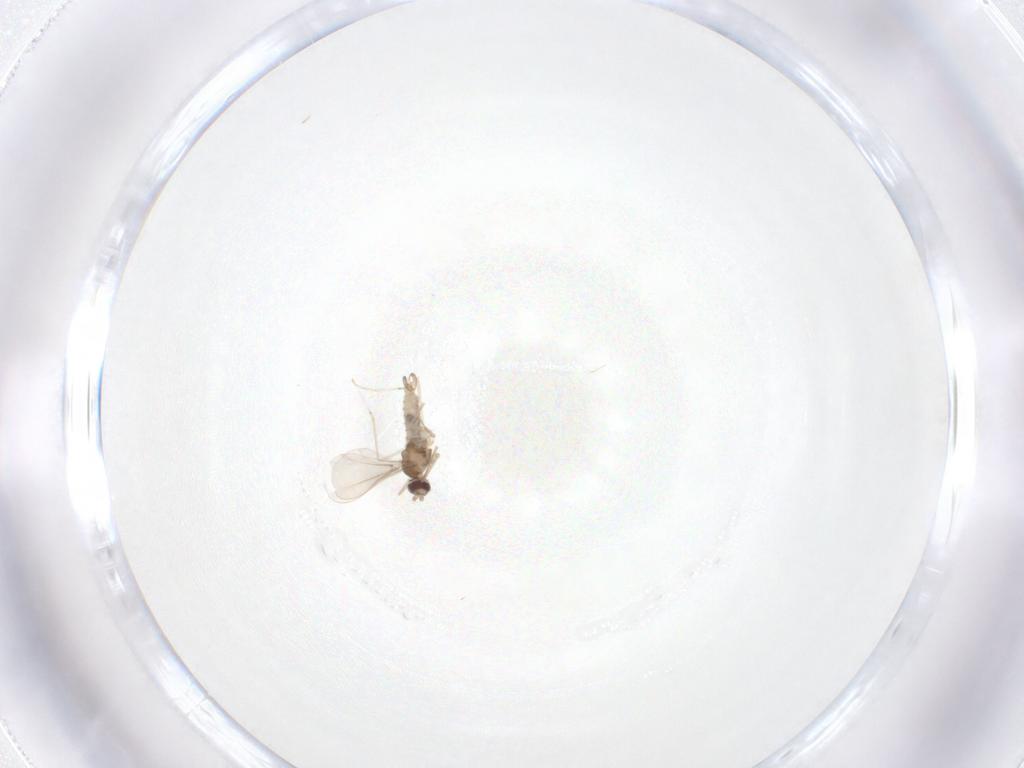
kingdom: Animalia
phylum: Arthropoda
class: Insecta
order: Diptera
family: Cecidomyiidae
